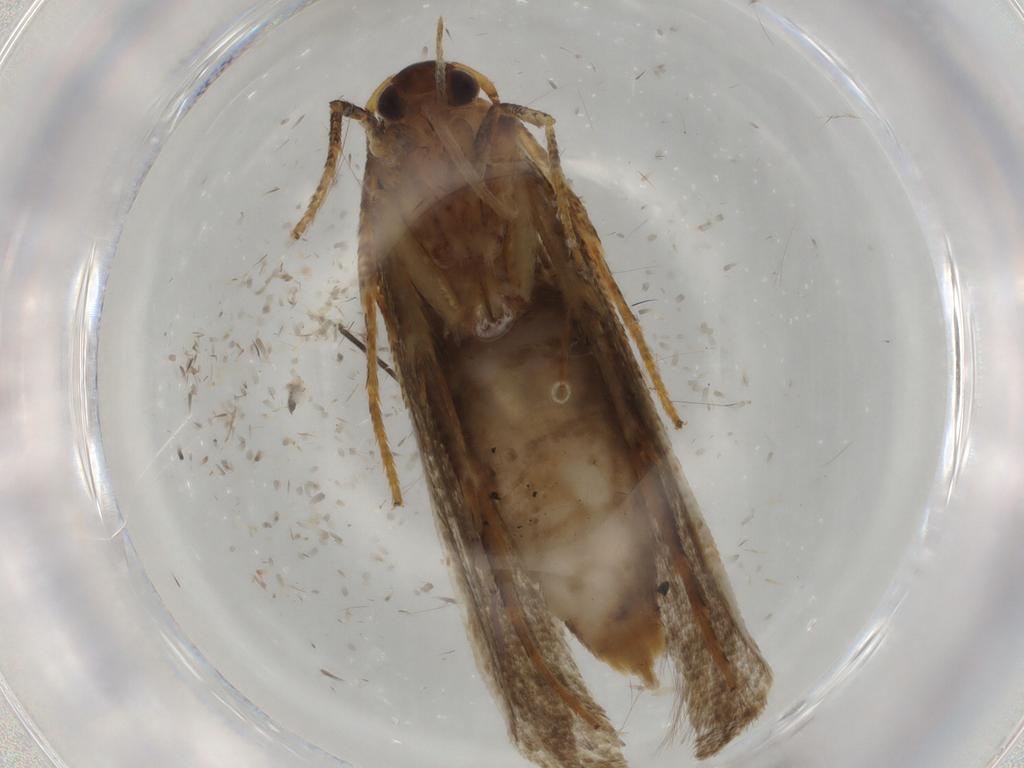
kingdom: Animalia
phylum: Arthropoda
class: Insecta
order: Lepidoptera
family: Blastobasidae
